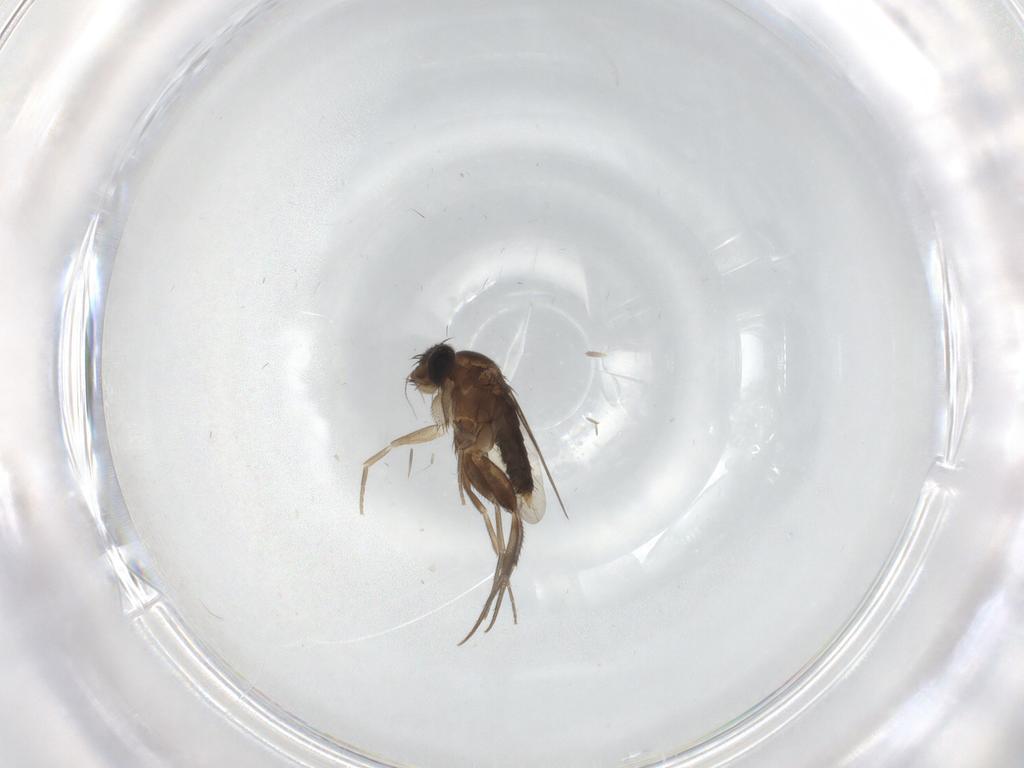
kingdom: Animalia
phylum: Arthropoda
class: Insecta
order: Diptera
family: Phoridae
